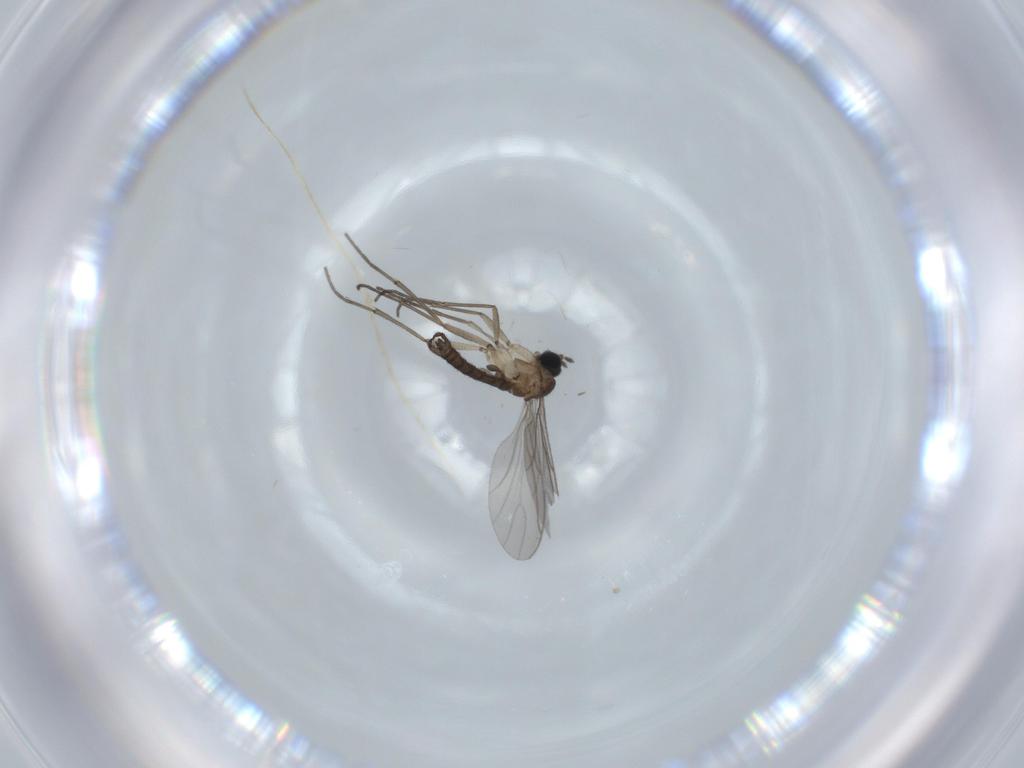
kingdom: Animalia
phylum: Arthropoda
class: Insecta
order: Diptera
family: Sciaridae
